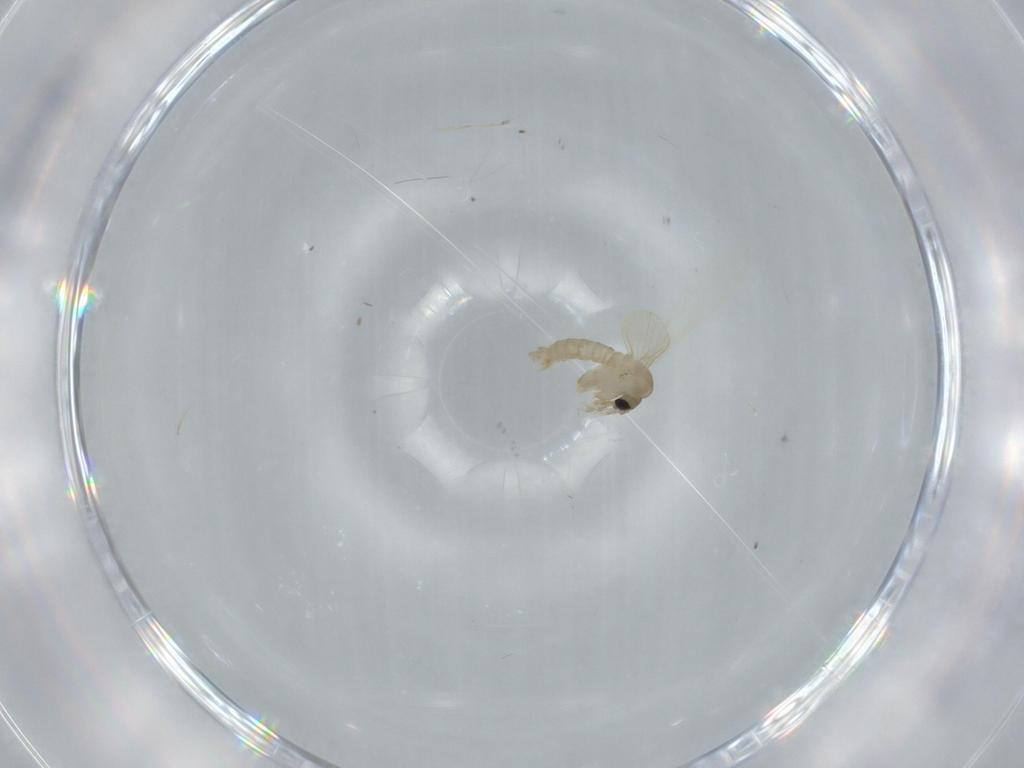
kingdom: Animalia
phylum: Arthropoda
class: Insecta
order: Diptera
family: Psychodidae
